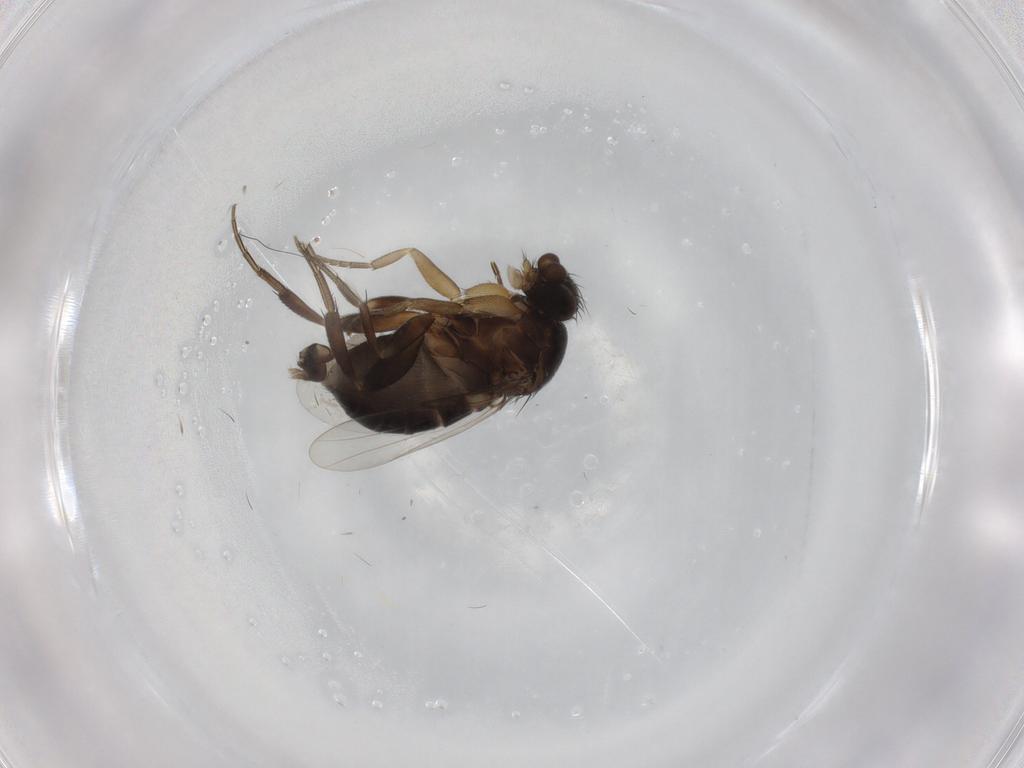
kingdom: Animalia
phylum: Arthropoda
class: Insecta
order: Diptera
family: Phoridae
